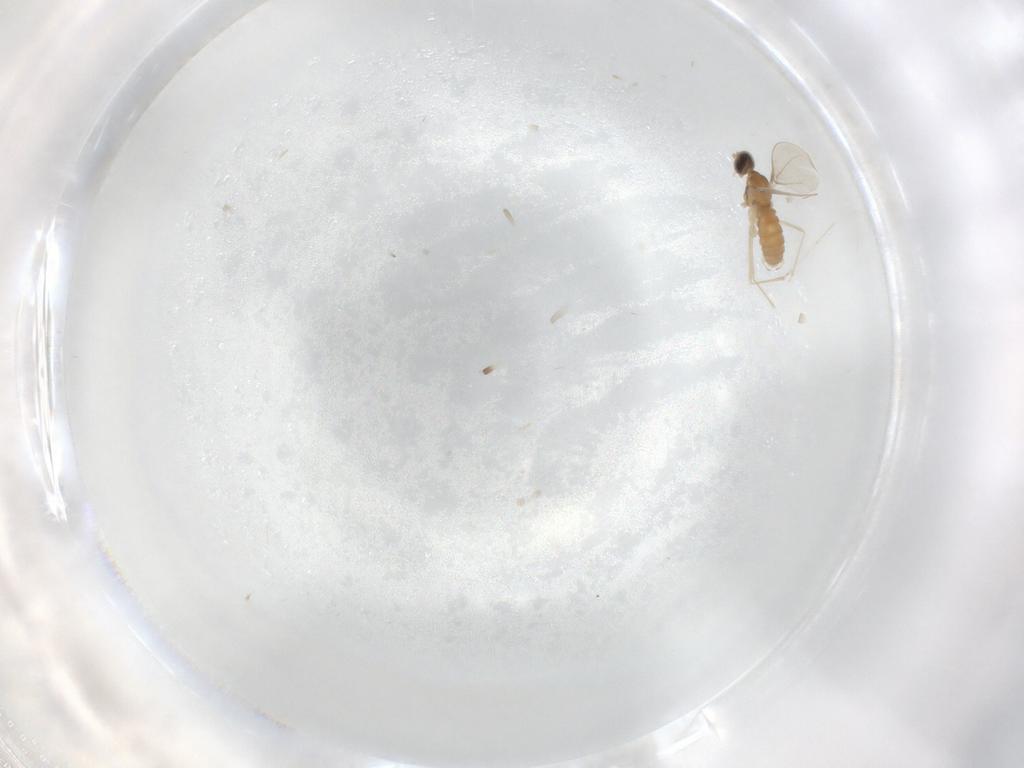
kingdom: Animalia
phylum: Arthropoda
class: Insecta
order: Diptera
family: Cecidomyiidae
